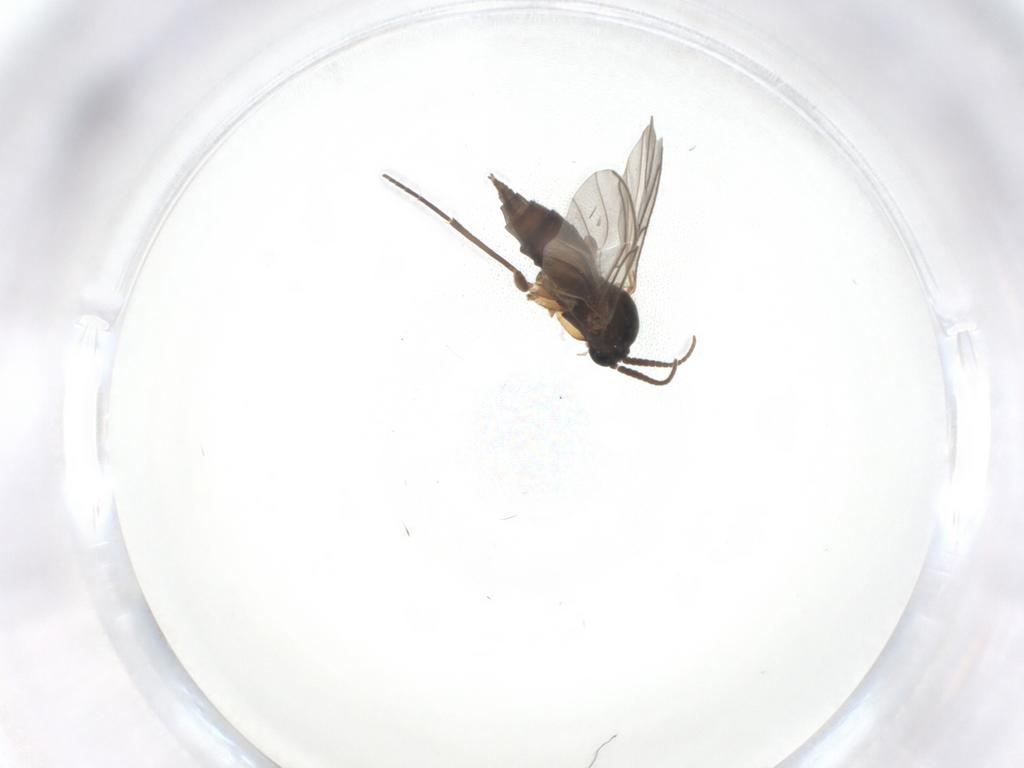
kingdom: Animalia
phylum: Arthropoda
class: Insecta
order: Diptera
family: Sciaridae
